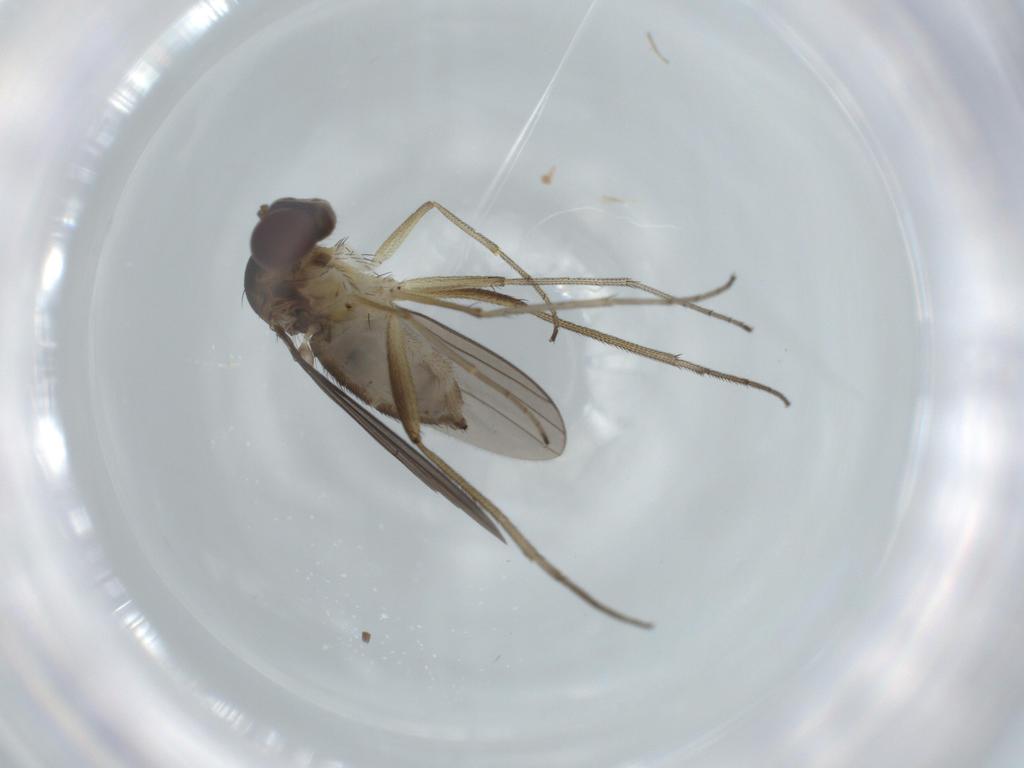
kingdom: Animalia
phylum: Arthropoda
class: Insecta
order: Diptera
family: Dolichopodidae
